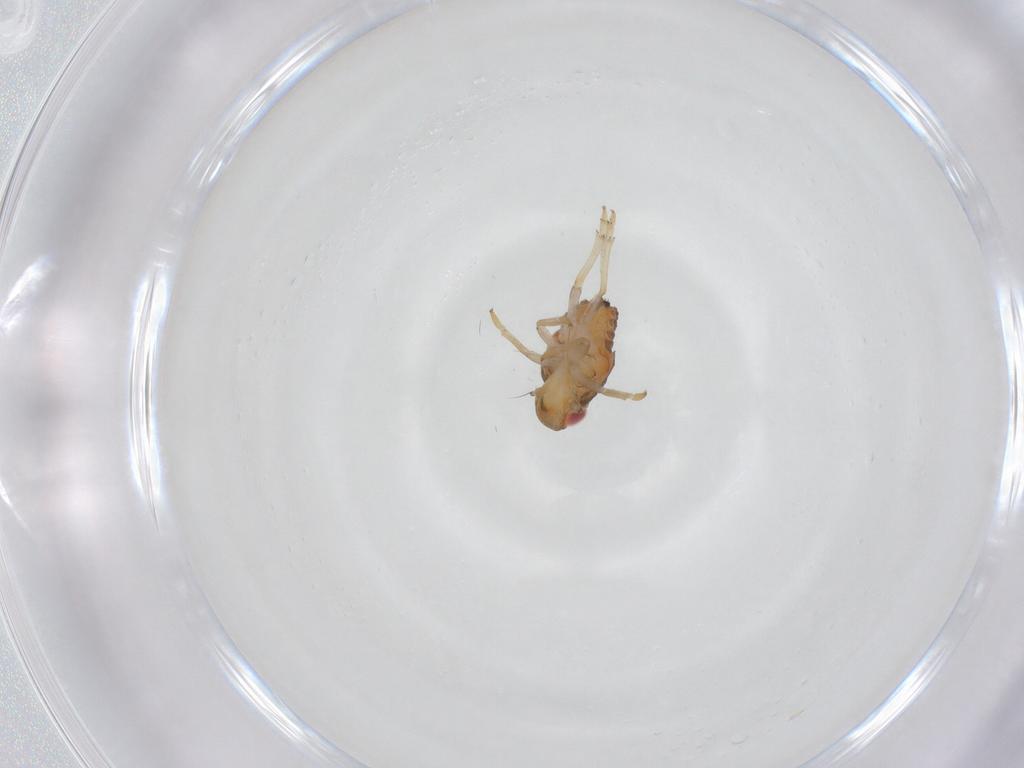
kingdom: Animalia
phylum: Arthropoda
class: Insecta
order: Hemiptera
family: Issidae
